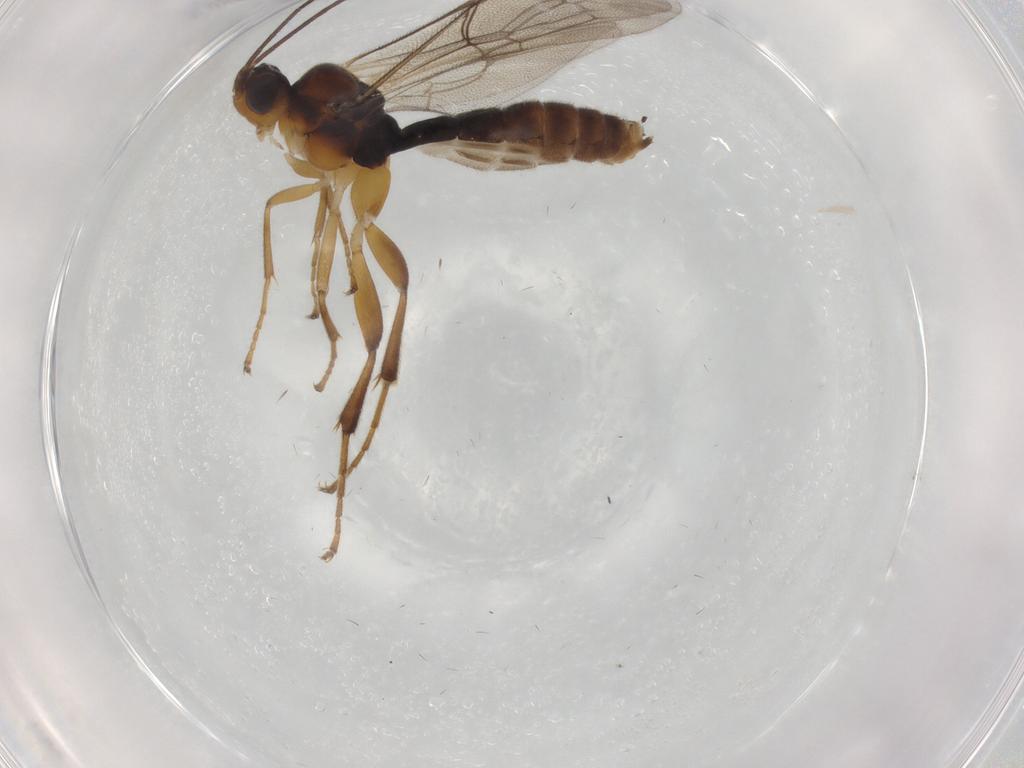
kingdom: Animalia
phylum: Arthropoda
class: Insecta
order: Hymenoptera
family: Ichneumonidae
